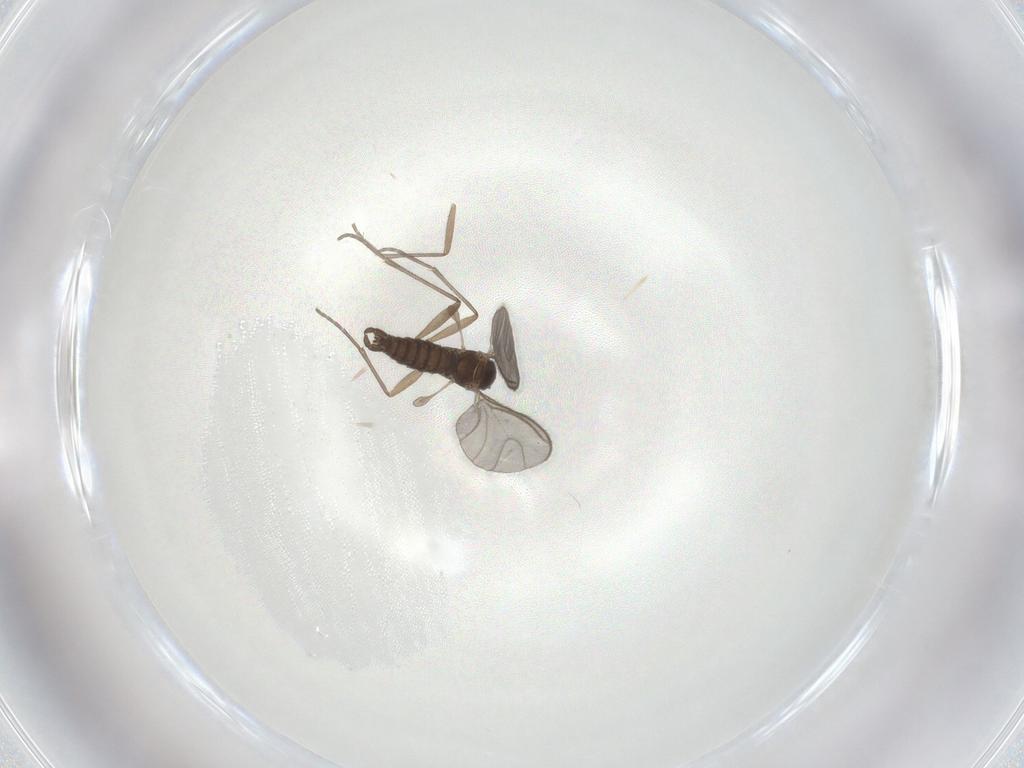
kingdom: Animalia
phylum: Arthropoda
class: Insecta
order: Diptera
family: Sciaridae
